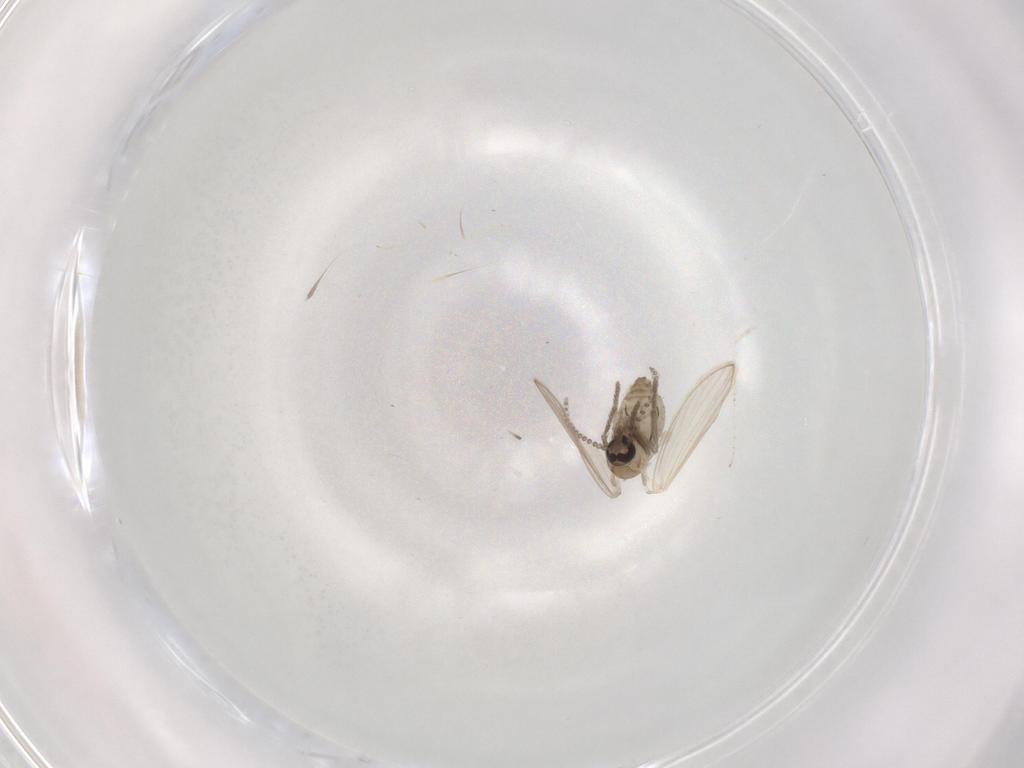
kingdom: Animalia
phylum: Arthropoda
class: Insecta
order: Diptera
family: Psychodidae
